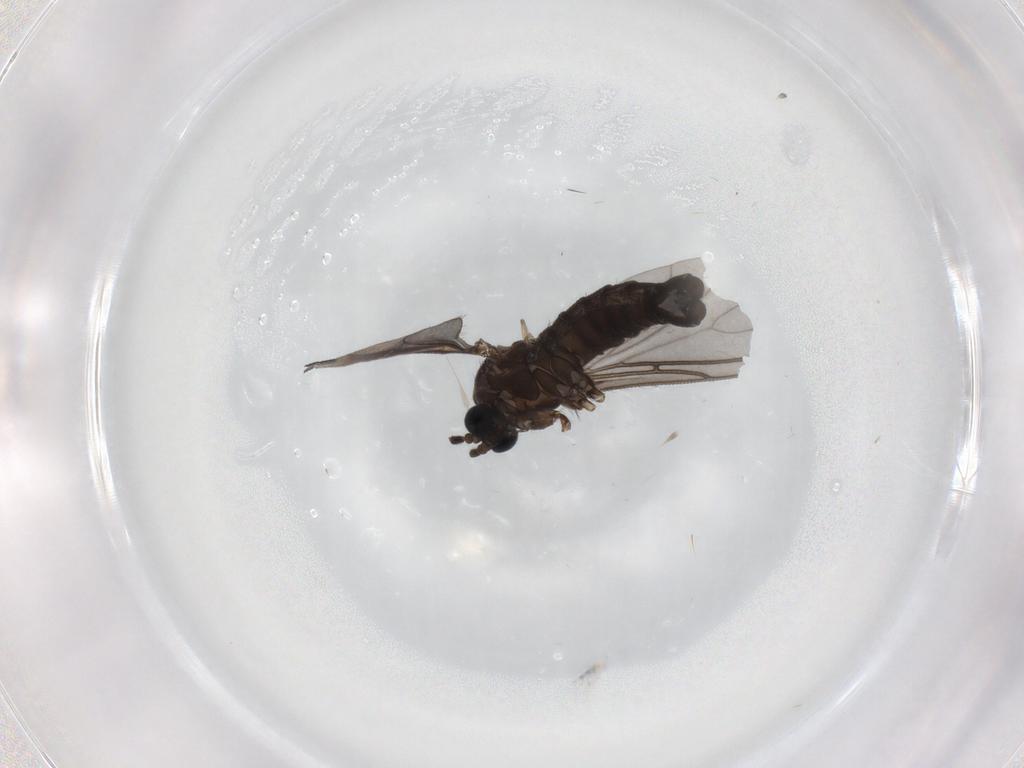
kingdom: Animalia
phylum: Arthropoda
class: Insecta
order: Diptera
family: Sciaridae
